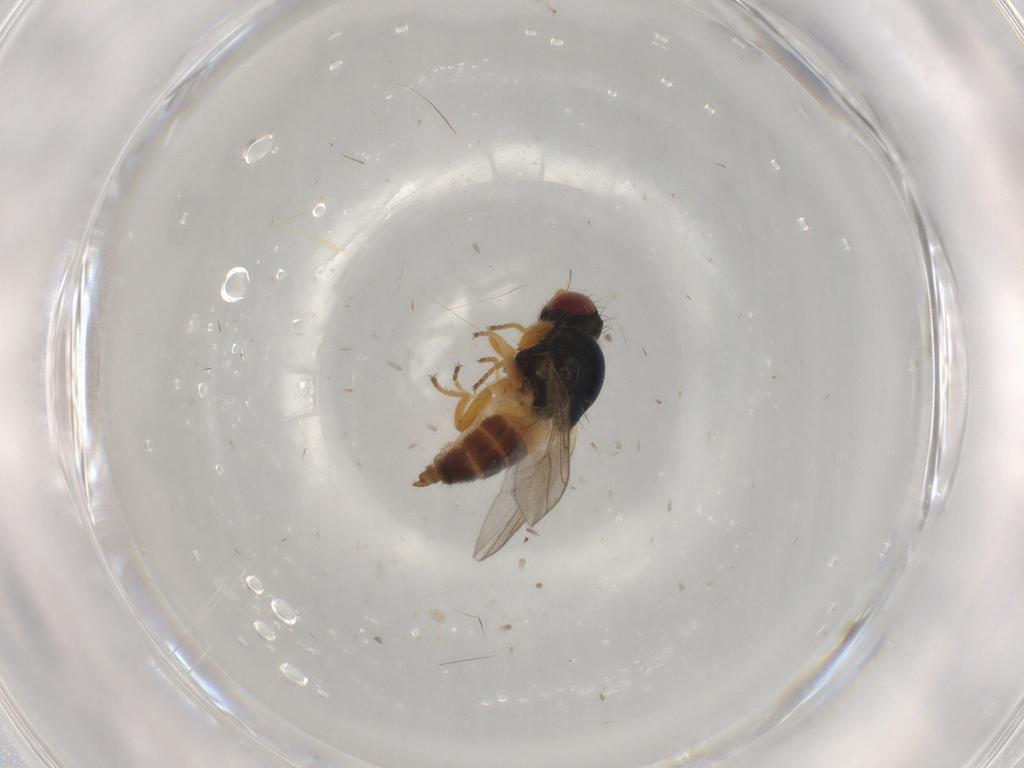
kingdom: Animalia
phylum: Arthropoda
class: Insecta
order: Diptera
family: Chloropidae
